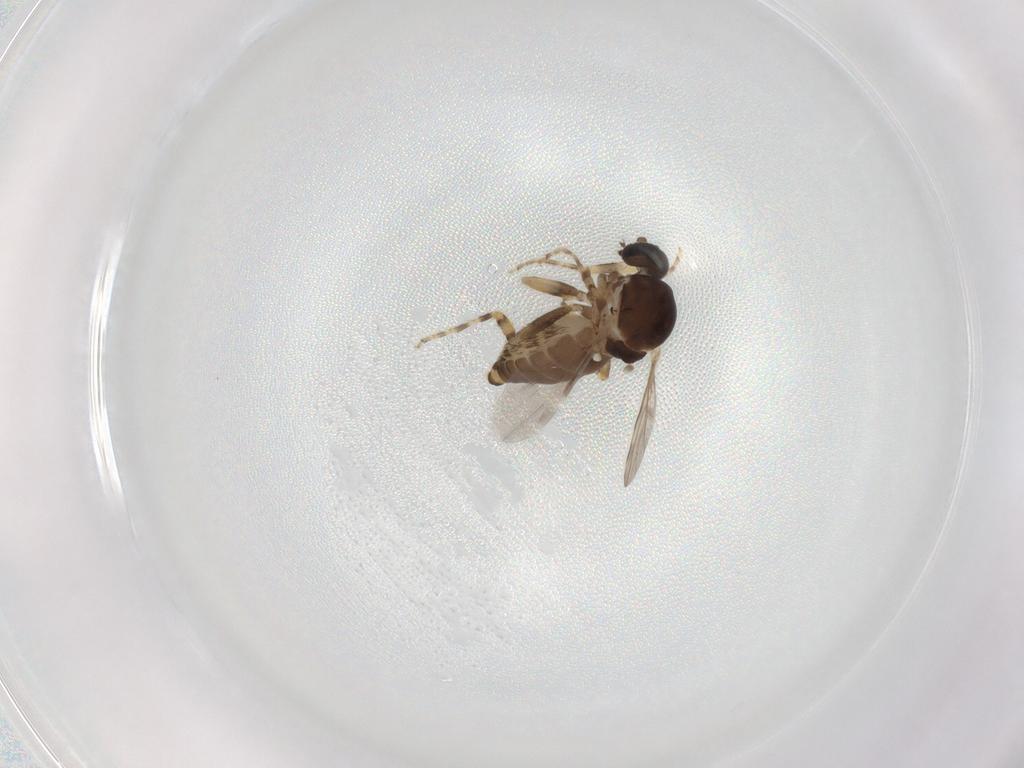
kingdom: Animalia
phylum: Arthropoda
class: Insecta
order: Diptera
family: Ceratopogonidae
